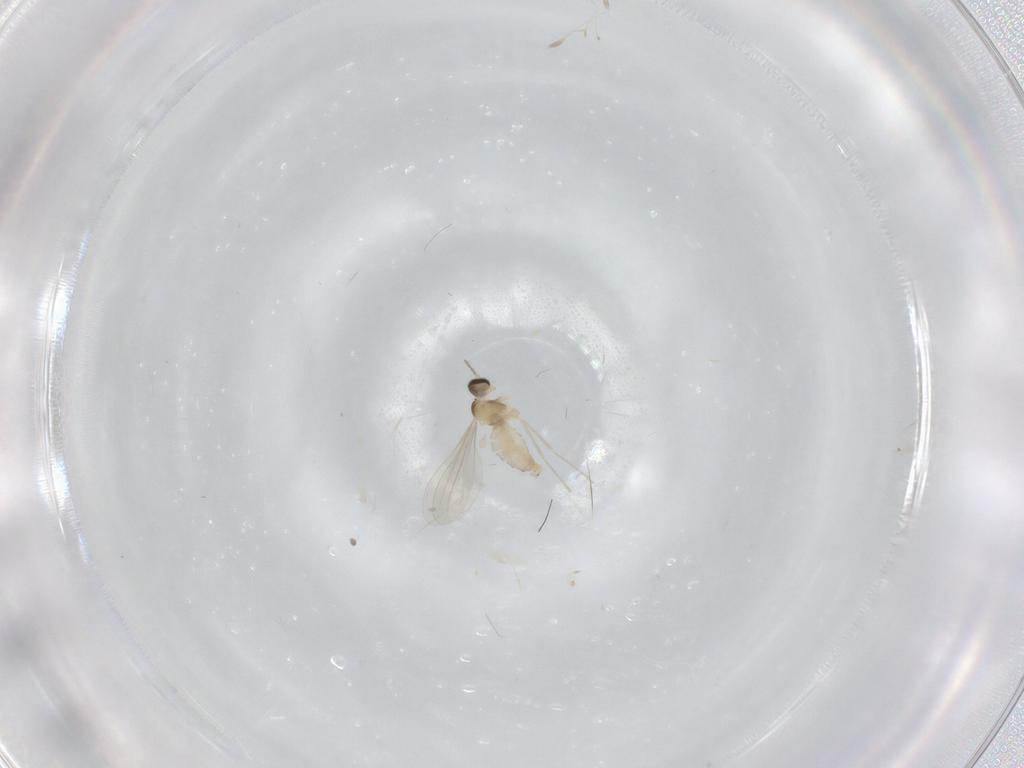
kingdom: Animalia
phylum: Arthropoda
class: Insecta
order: Diptera
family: Cecidomyiidae
